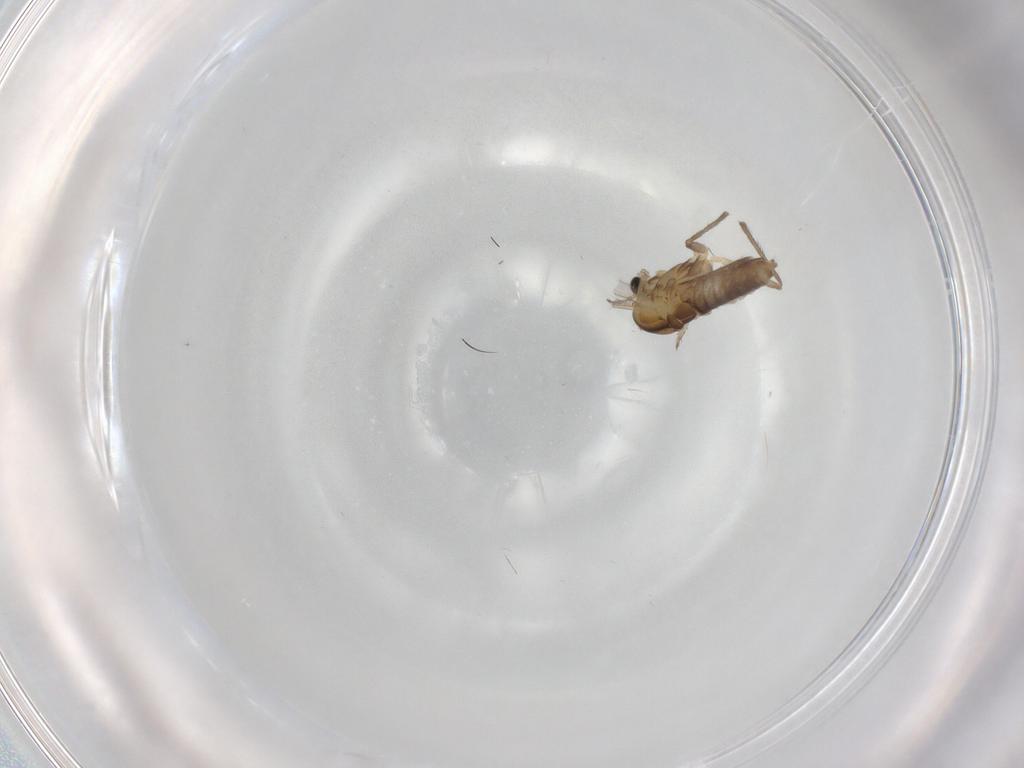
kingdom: Animalia
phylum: Arthropoda
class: Insecta
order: Diptera
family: Chironomidae
